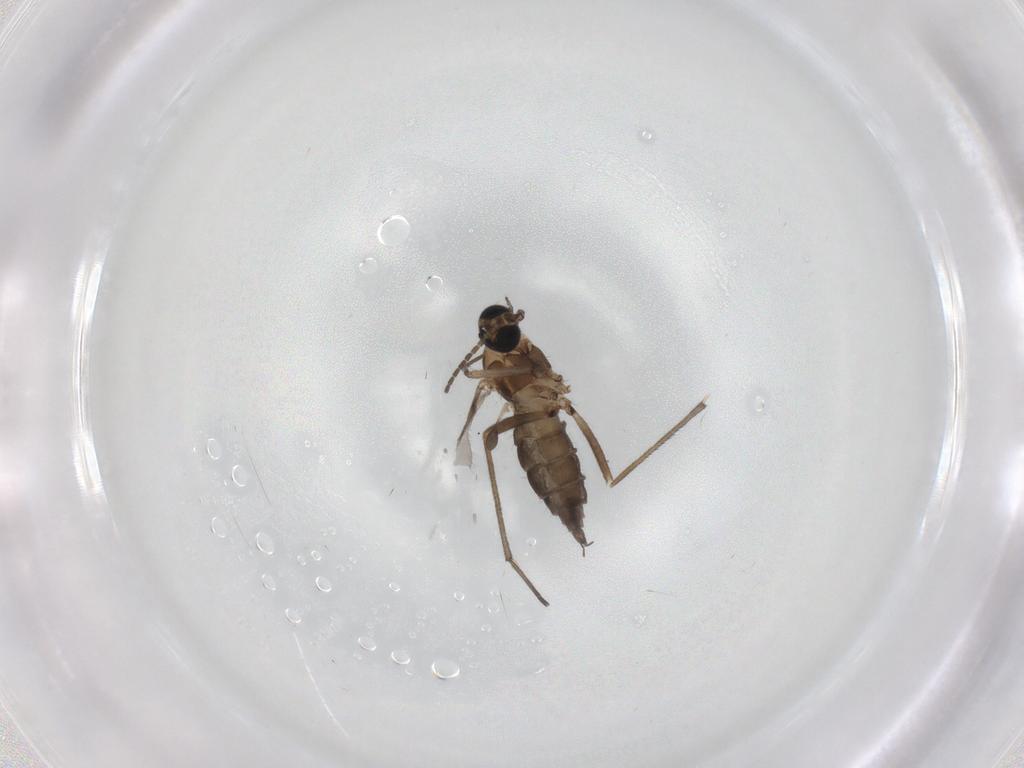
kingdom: Animalia
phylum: Arthropoda
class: Insecta
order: Diptera
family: Sciaridae
